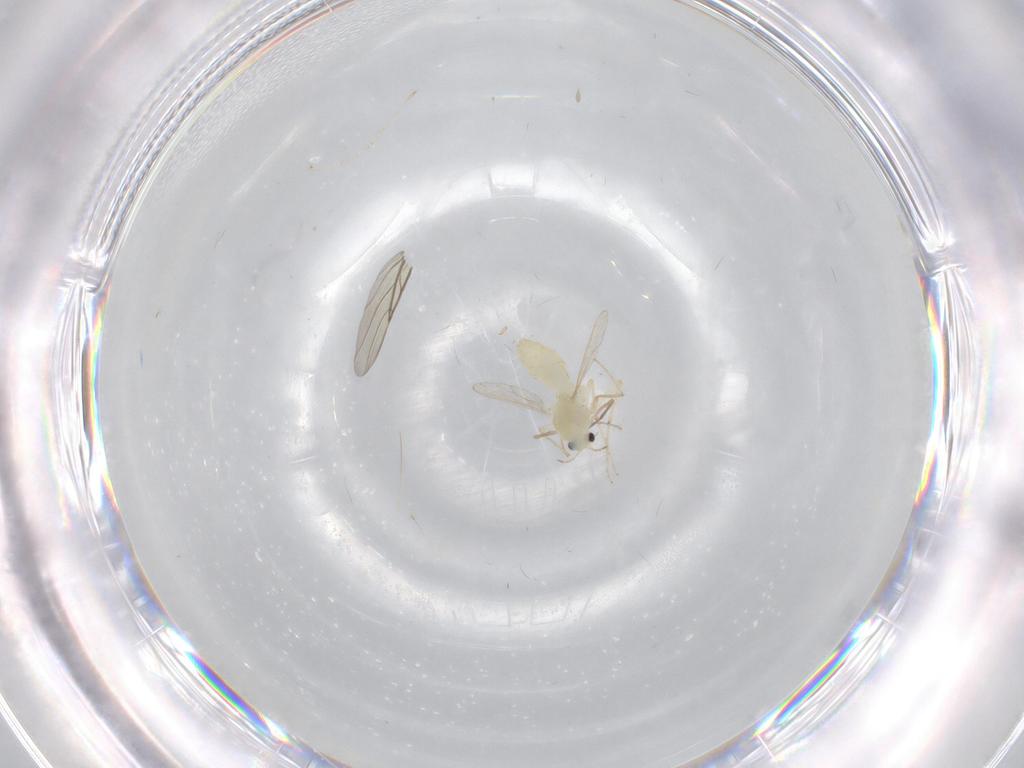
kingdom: Animalia
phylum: Arthropoda
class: Insecta
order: Diptera
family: Chironomidae
